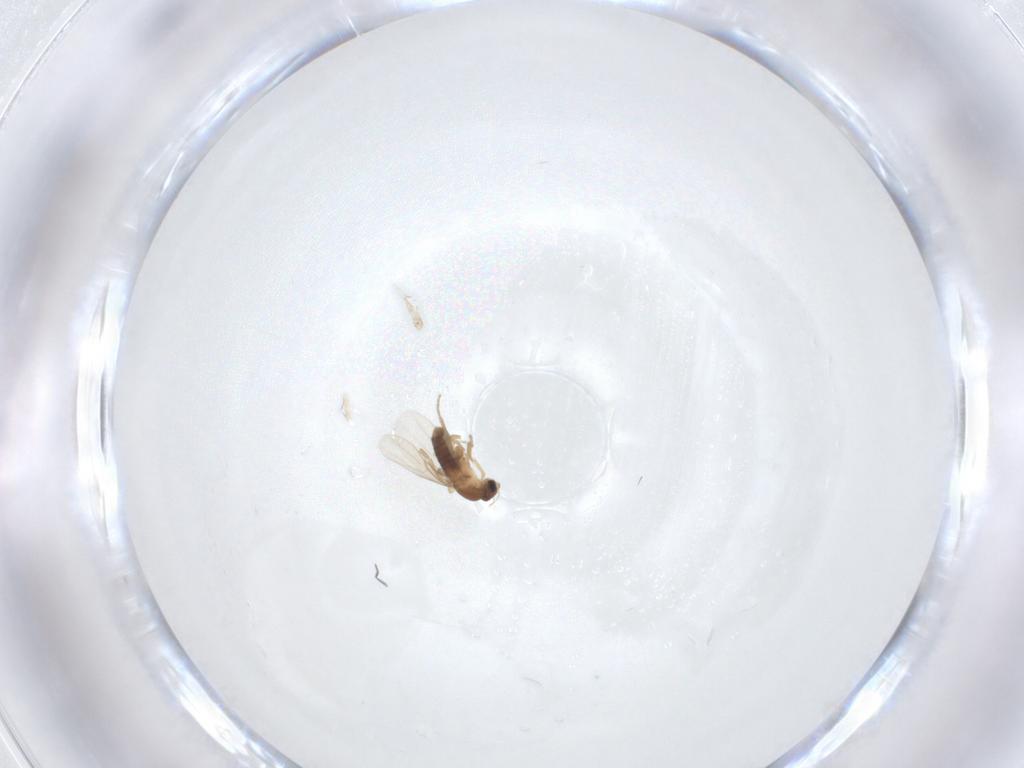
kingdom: Animalia
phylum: Arthropoda
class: Insecta
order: Diptera
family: Phoridae
